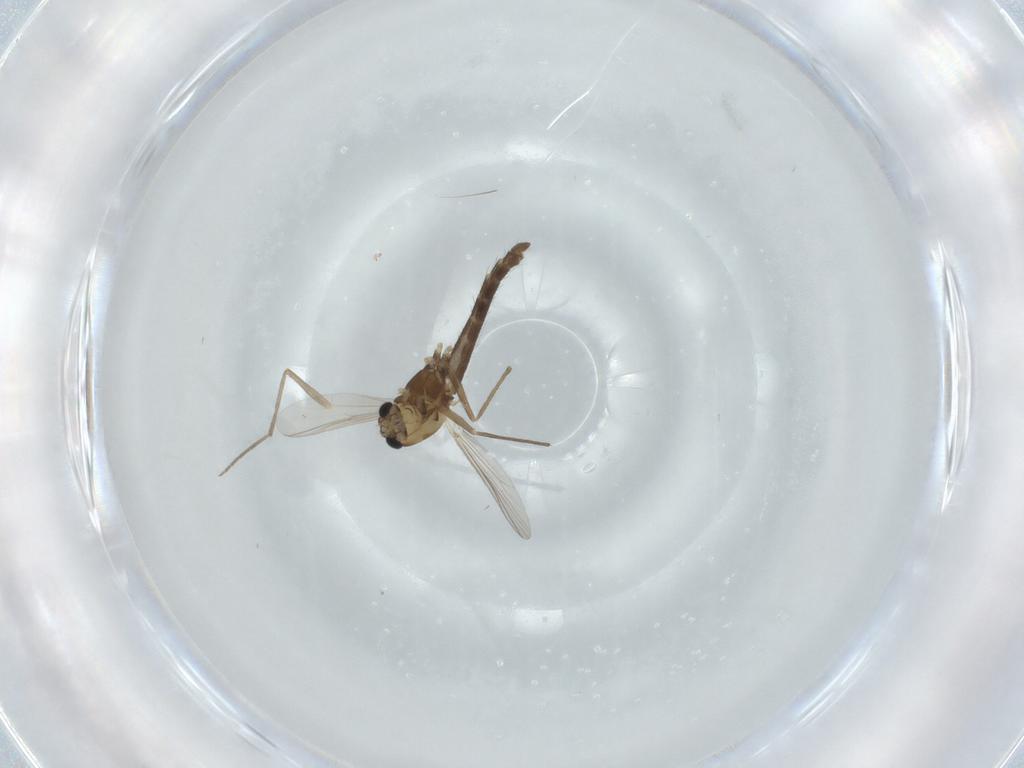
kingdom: Animalia
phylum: Arthropoda
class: Insecta
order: Diptera
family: Chironomidae
